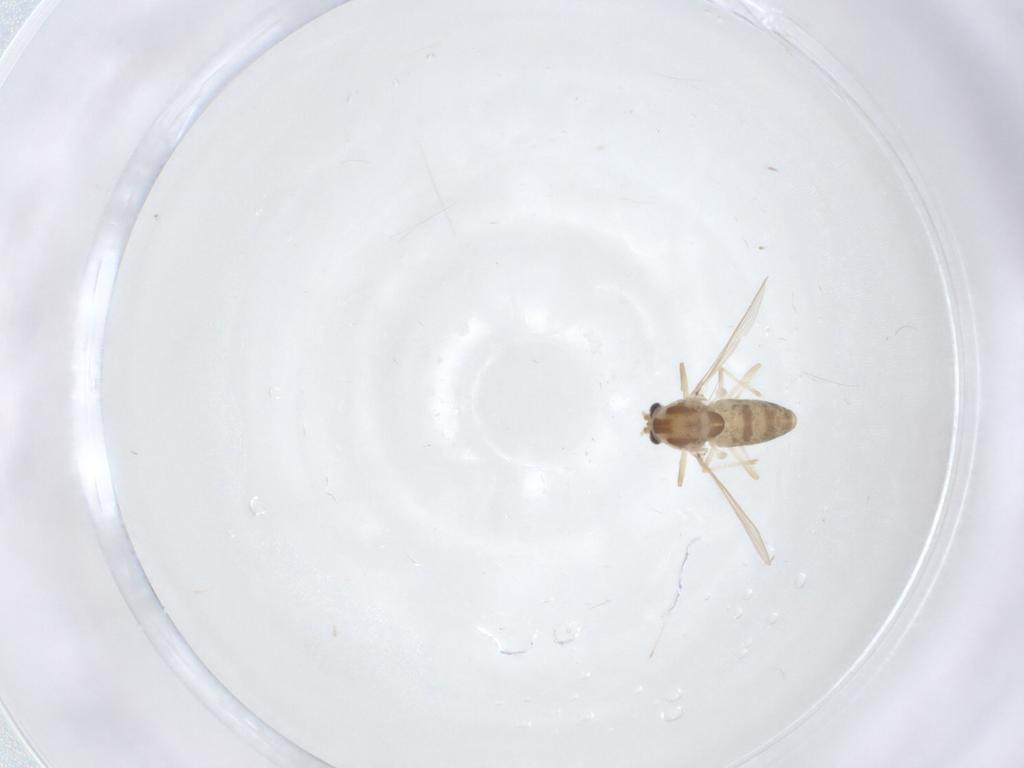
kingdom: Animalia
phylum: Arthropoda
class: Insecta
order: Diptera
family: Chironomidae
